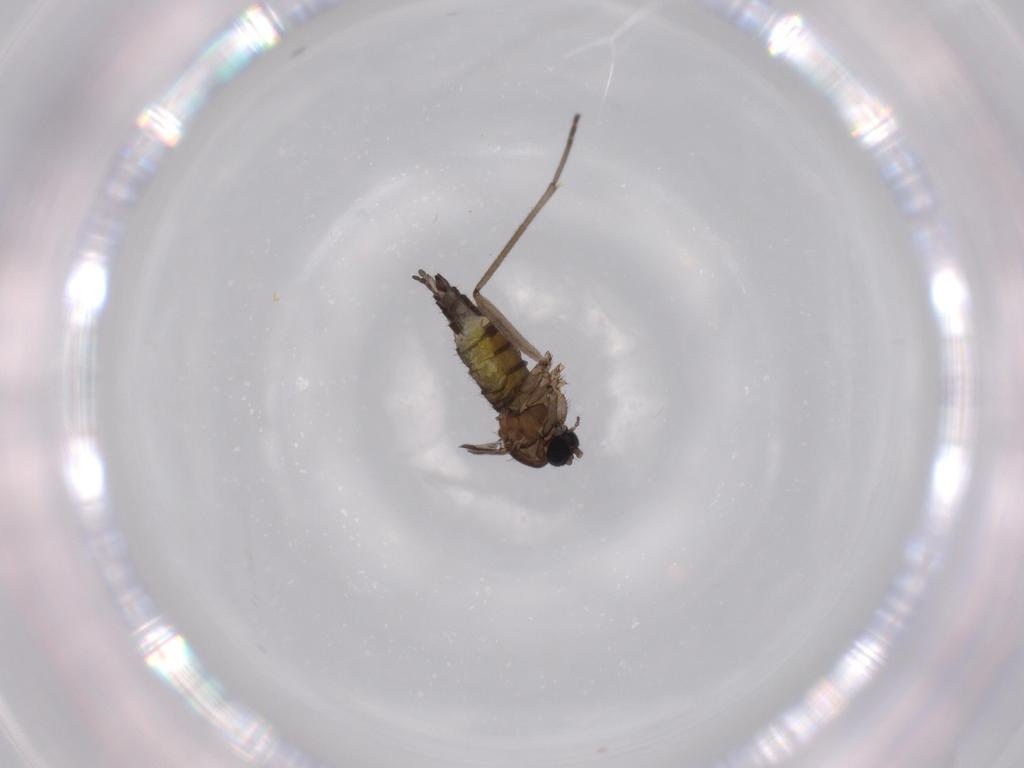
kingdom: Animalia
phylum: Arthropoda
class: Insecta
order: Diptera
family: Sciaridae
